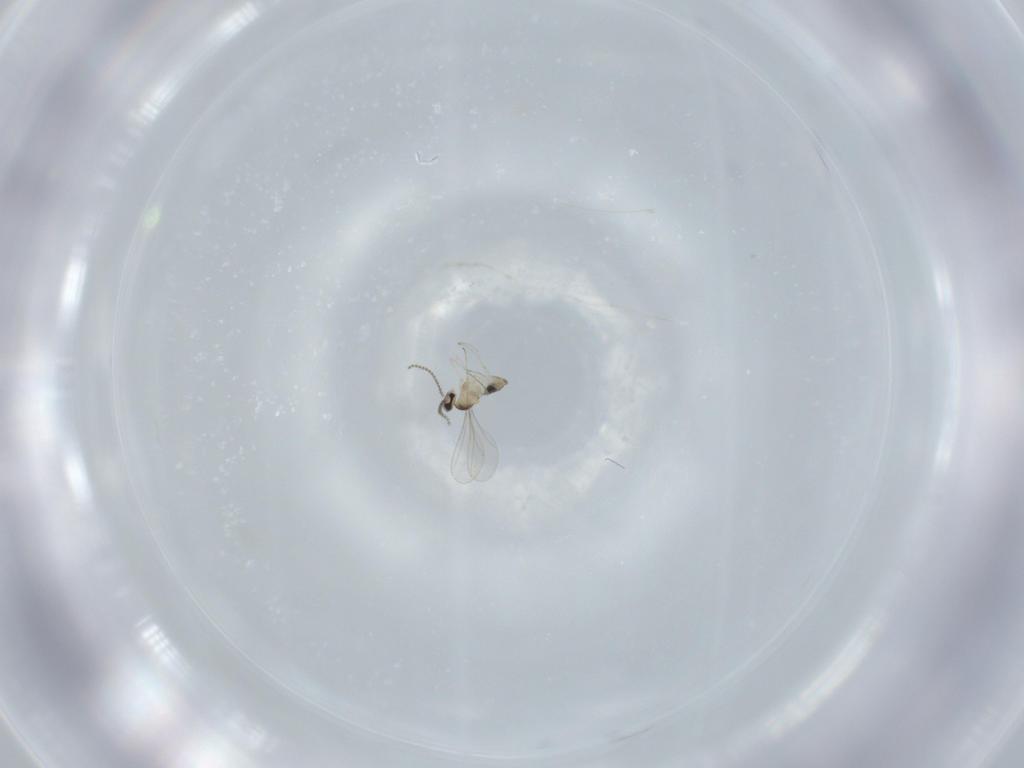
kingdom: Animalia
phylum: Arthropoda
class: Insecta
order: Diptera
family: Cecidomyiidae
